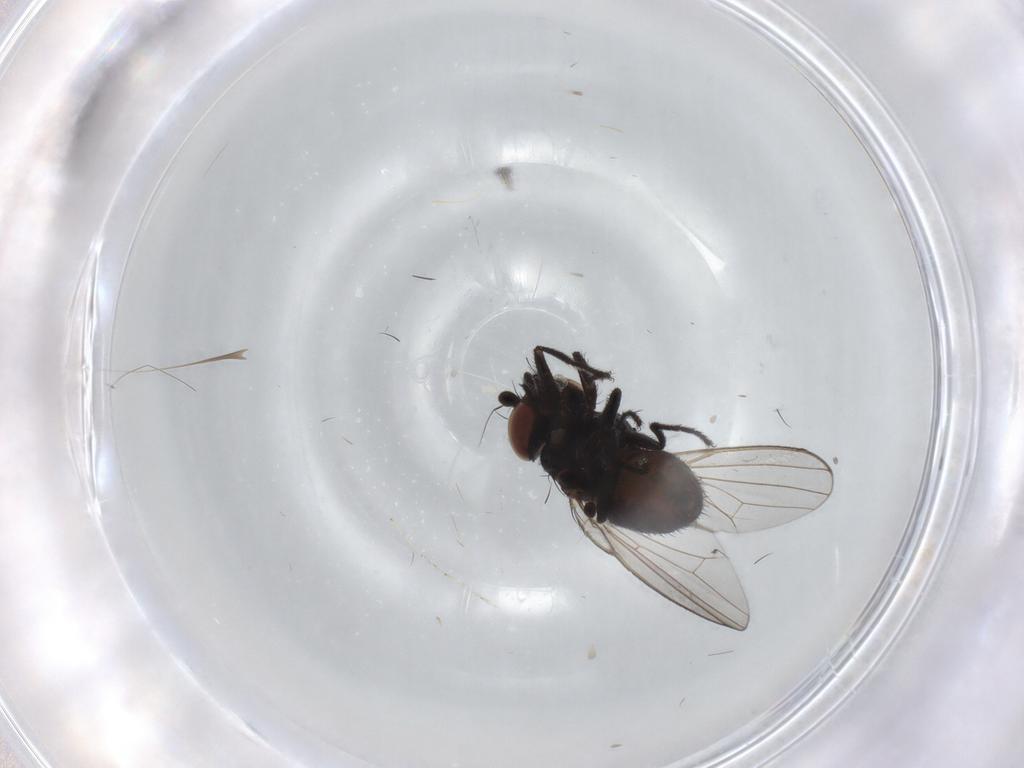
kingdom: Animalia
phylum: Arthropoda
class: Insecta
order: Diptera
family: Milichiidae
